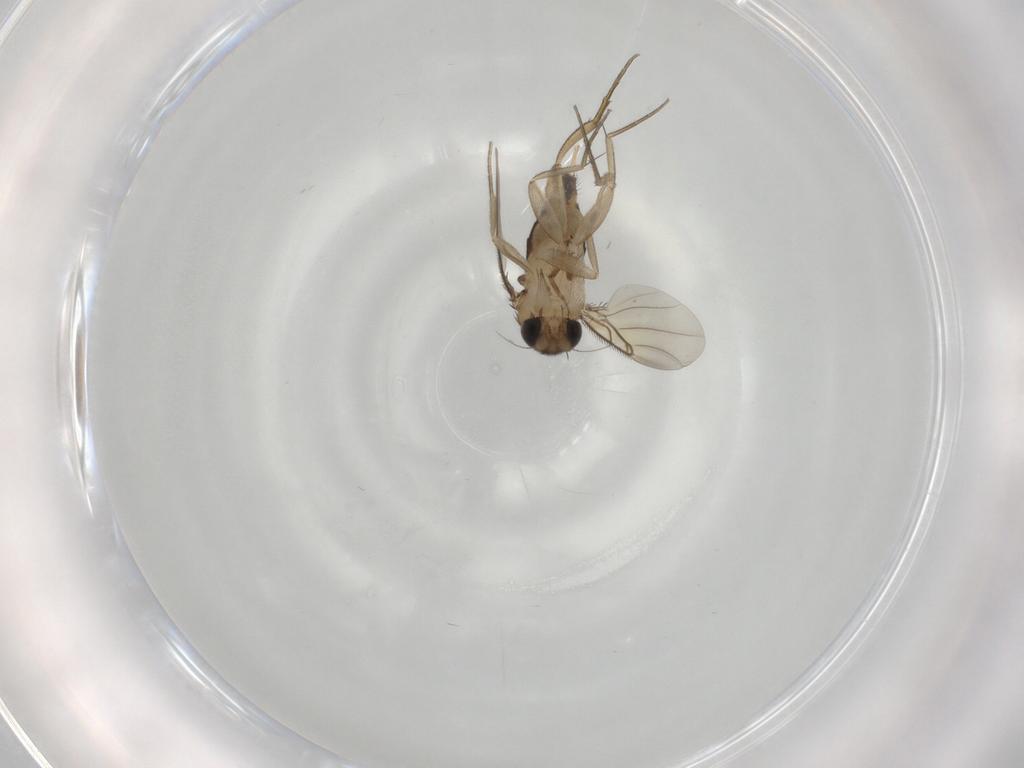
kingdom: Animalia
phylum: Arthropoda
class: Insecta
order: Diptera
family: Phoridae
